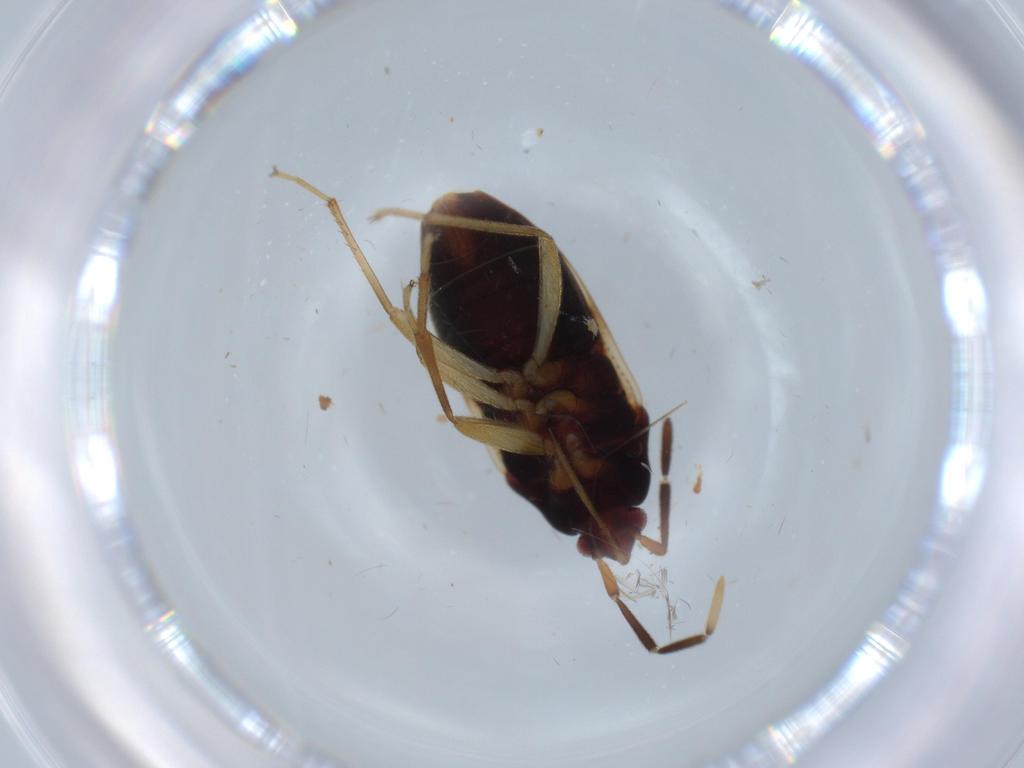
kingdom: Animalia
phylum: Arthropoda
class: Insecta
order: Hemiptera
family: Rhyparochromidae
